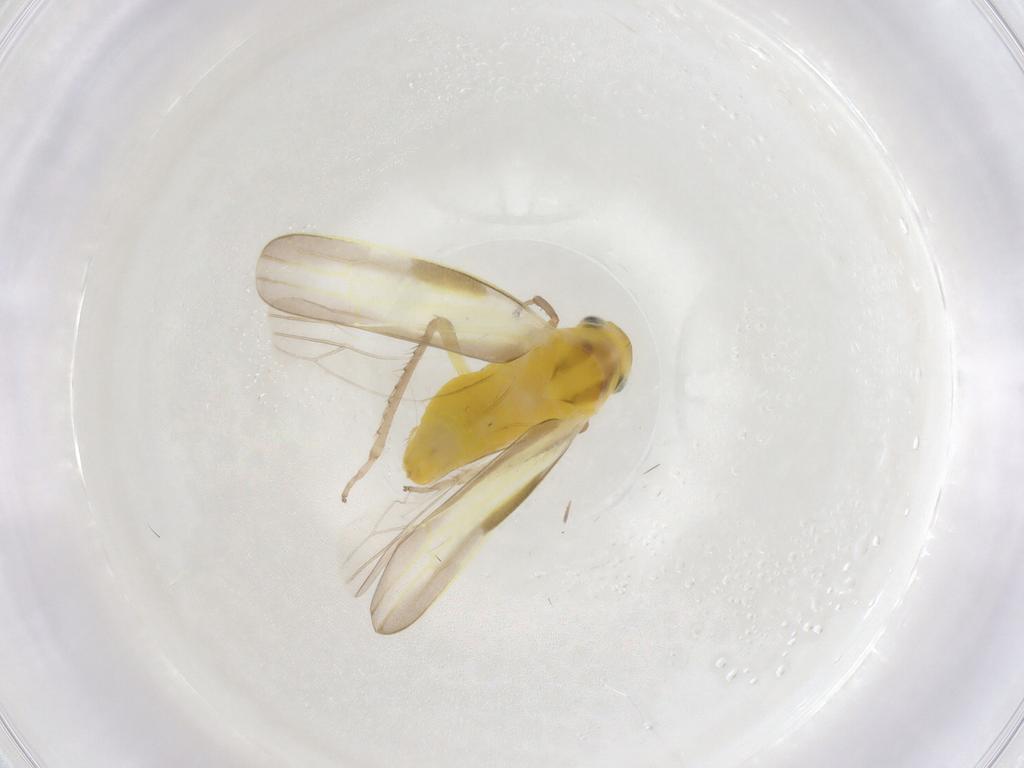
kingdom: Animalia
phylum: Arthropoda
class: Insecta
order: Hemiptera
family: Cicadellidae
